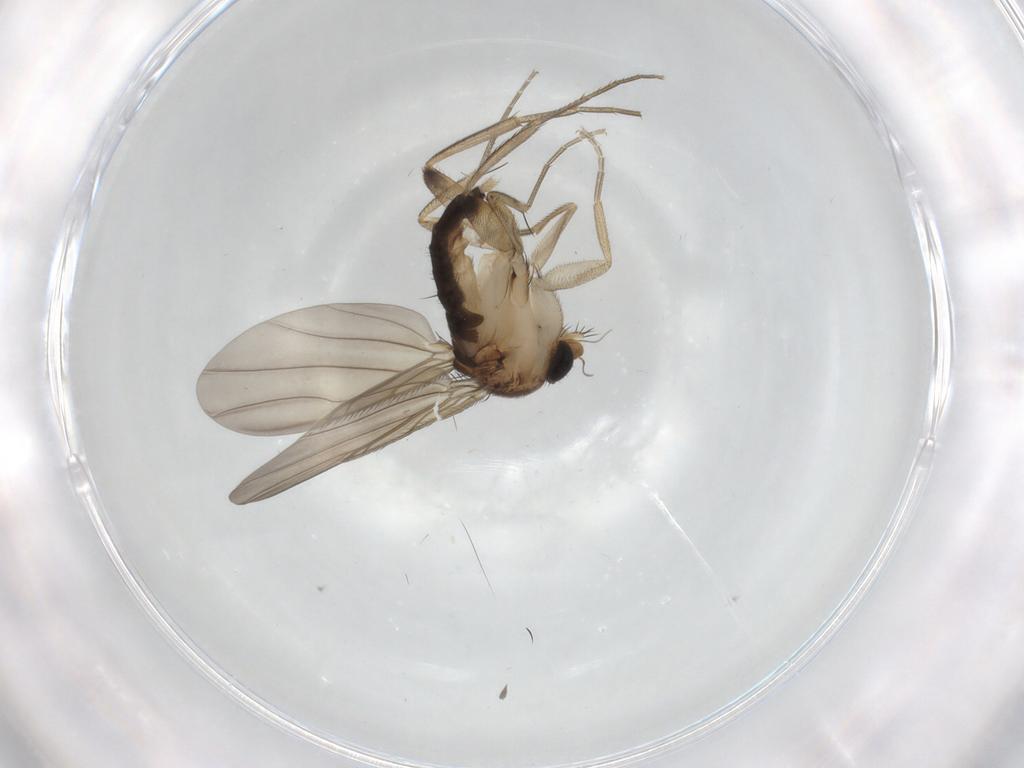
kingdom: Animalia
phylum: Arthropoda
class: Insecta
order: Diptera
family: Phoridae
